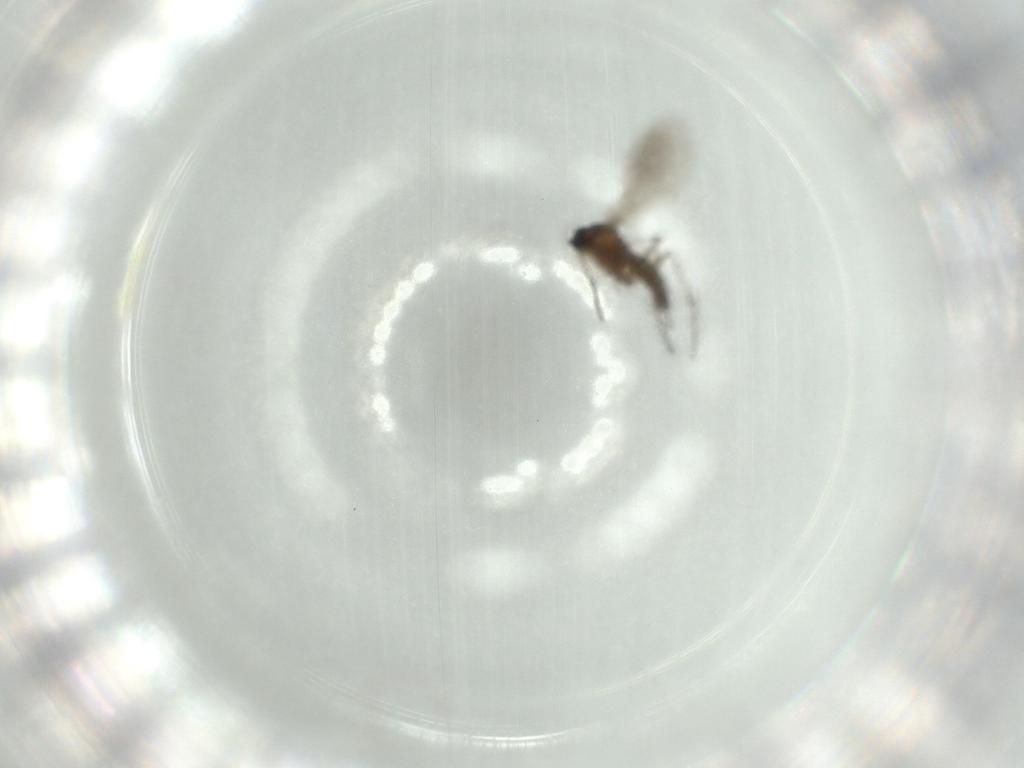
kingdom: Animalia
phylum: Arthropoda
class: Insecta
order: Diptera
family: Sciaridae
